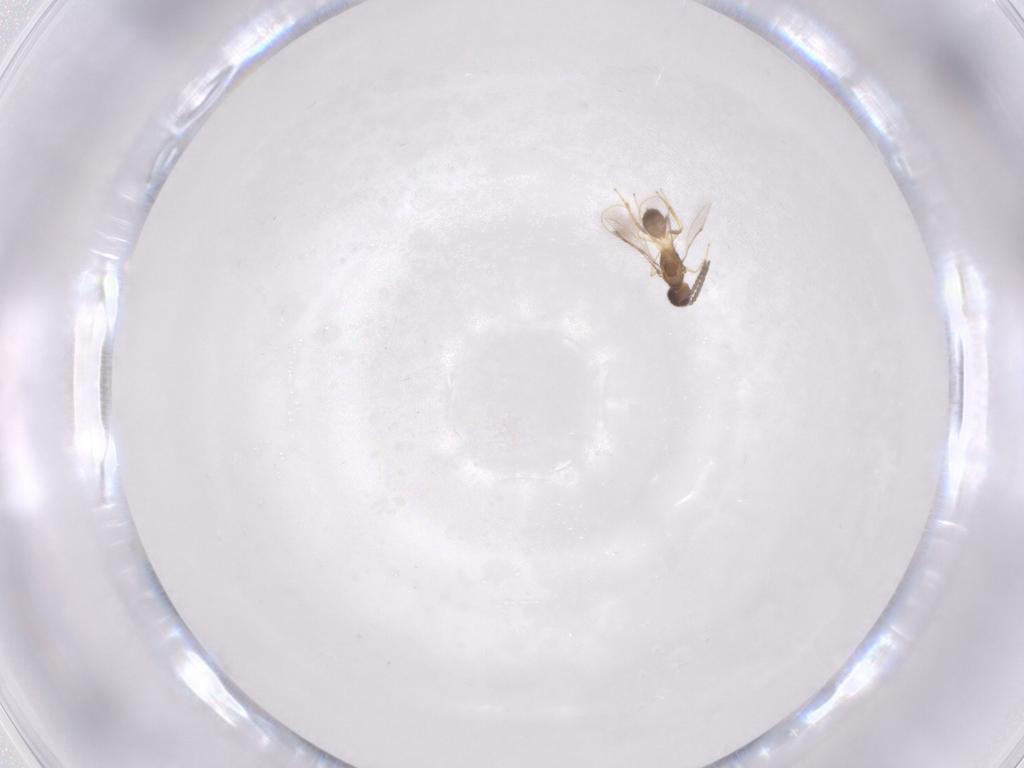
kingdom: Animalia
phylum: Arthropoda
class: Insecta
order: Hymenoptera
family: Pteromalidae
